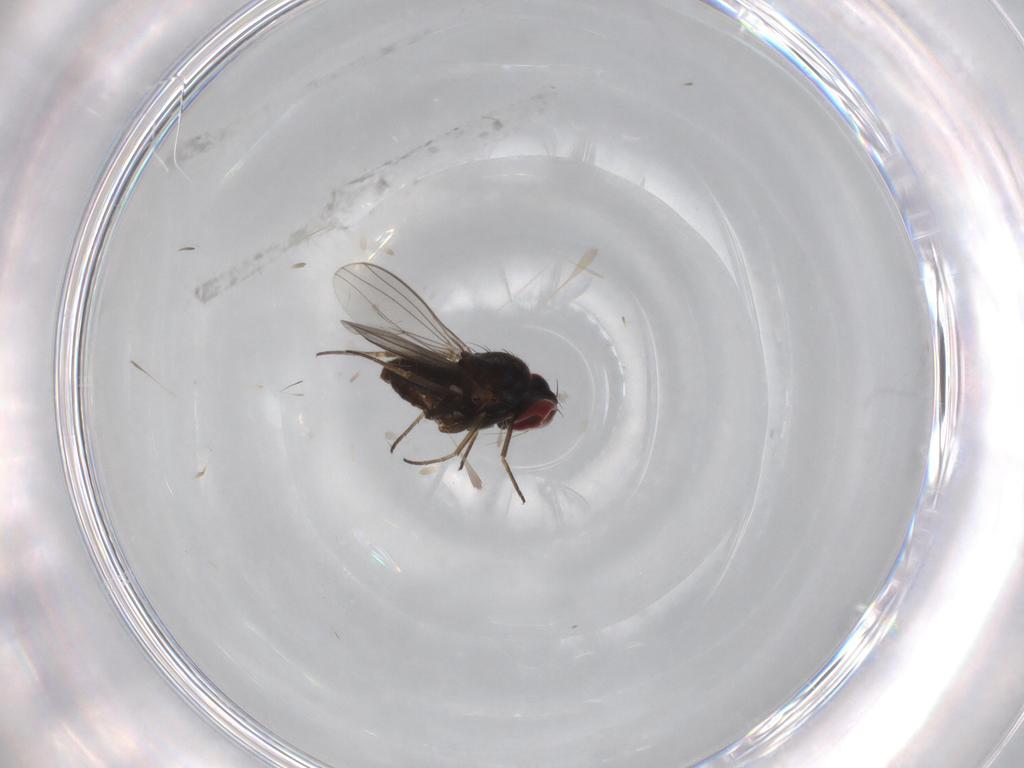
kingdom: Animalia
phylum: Arthropoda
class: Insecta
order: Diptera
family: Dolichopodidae
